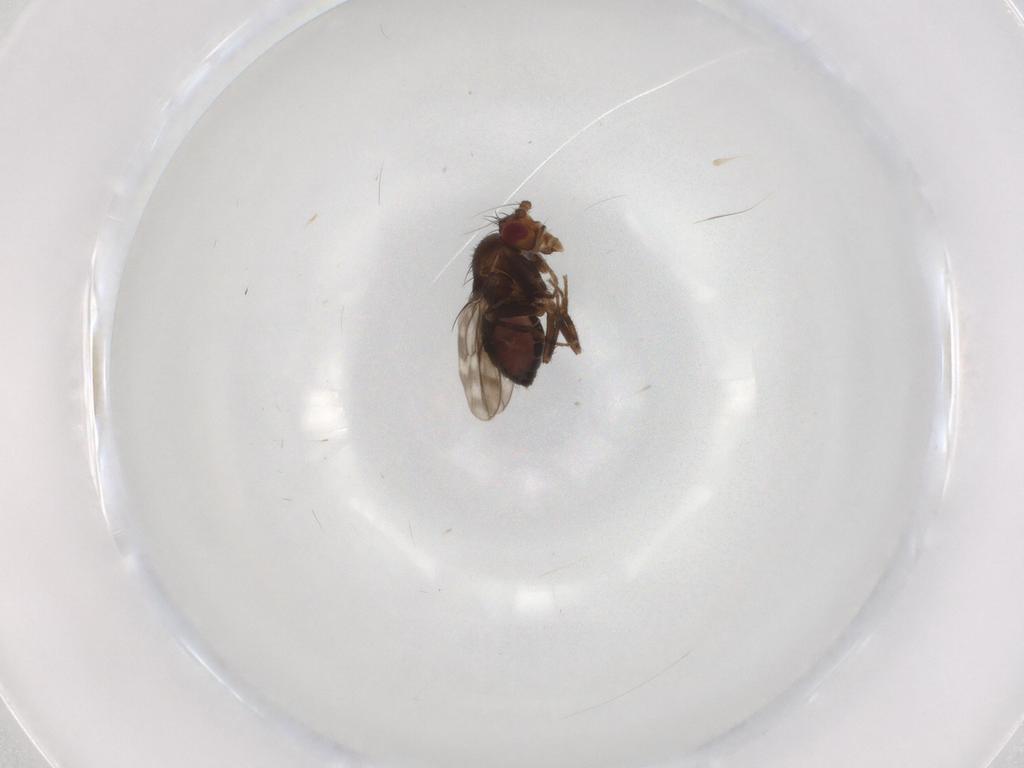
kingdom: Animalia
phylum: Arthropoda
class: Insecta
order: Diptera
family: Sphaeroceridae
